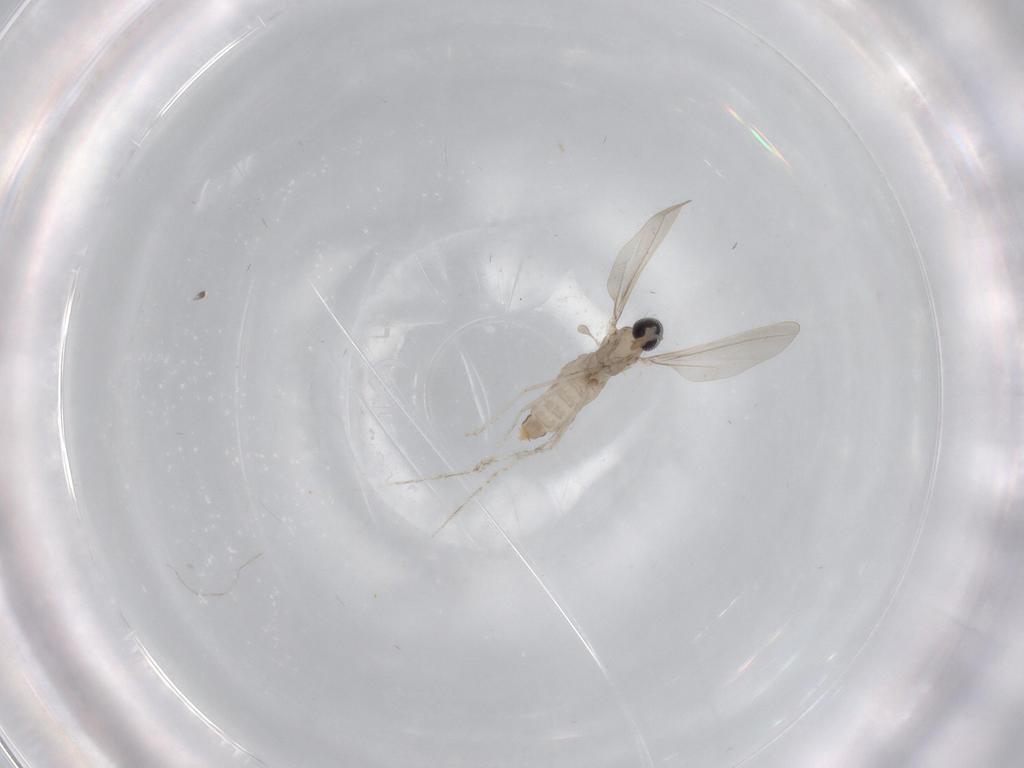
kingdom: Animalia
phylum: Arthropoda
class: Insecta
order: Diptera
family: Cecidomyiidae
